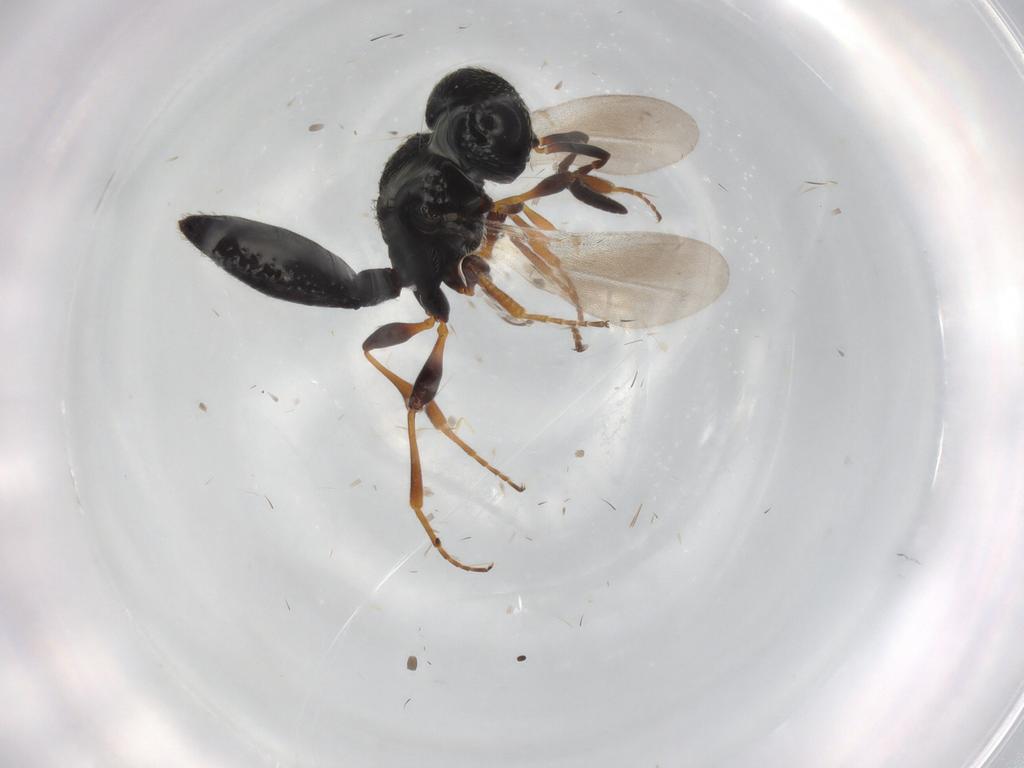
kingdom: Animalia
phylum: Arthropoda
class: Insecta
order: Hymenoptera
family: Scelionidae
